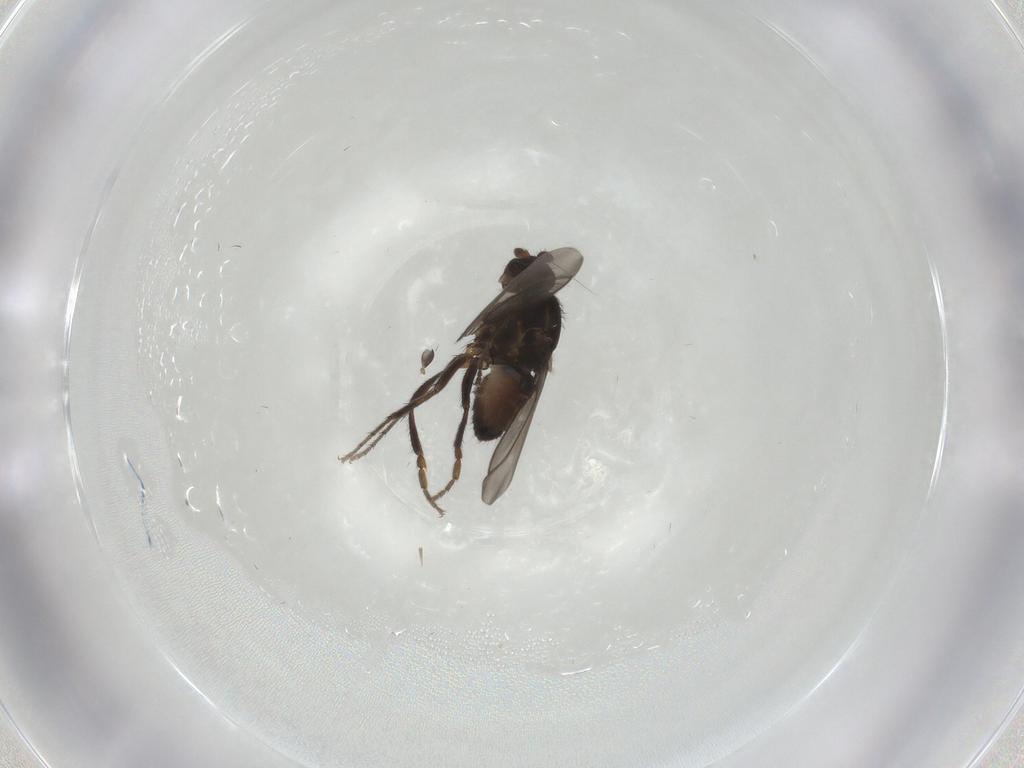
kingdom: Animalia
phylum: Arthropoda
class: Insecta
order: Diptera
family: Sphaeroceridae
